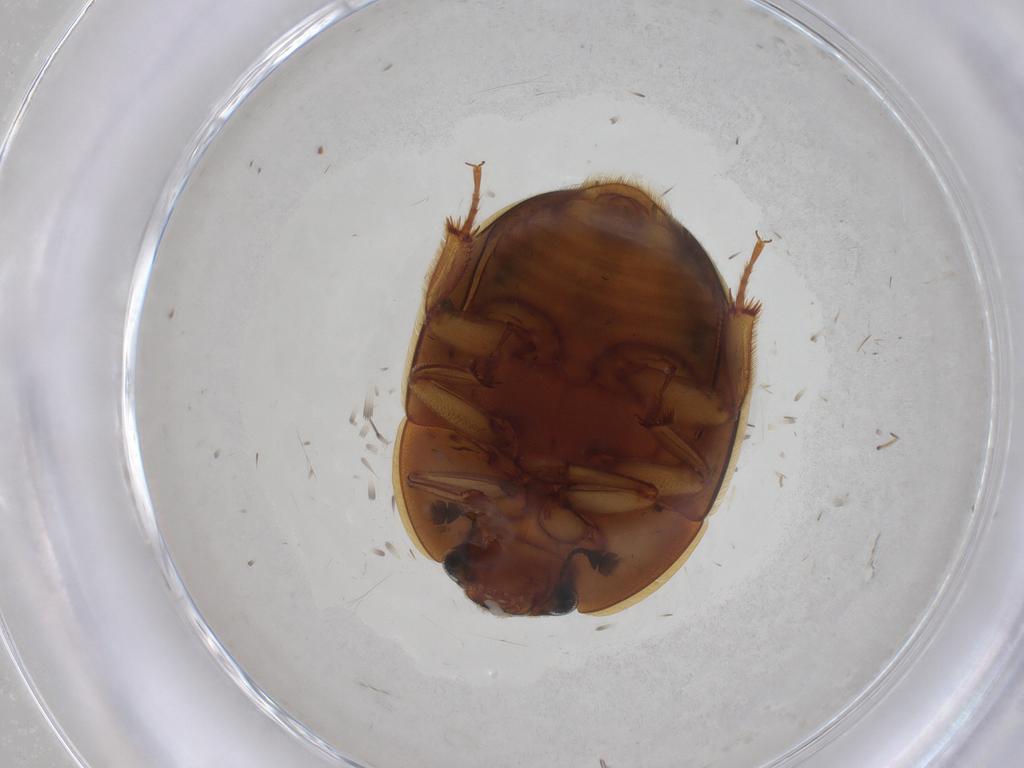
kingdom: Animalia
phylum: Arthropoda
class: Insecta
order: Coleoptera
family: Nitidulidae
